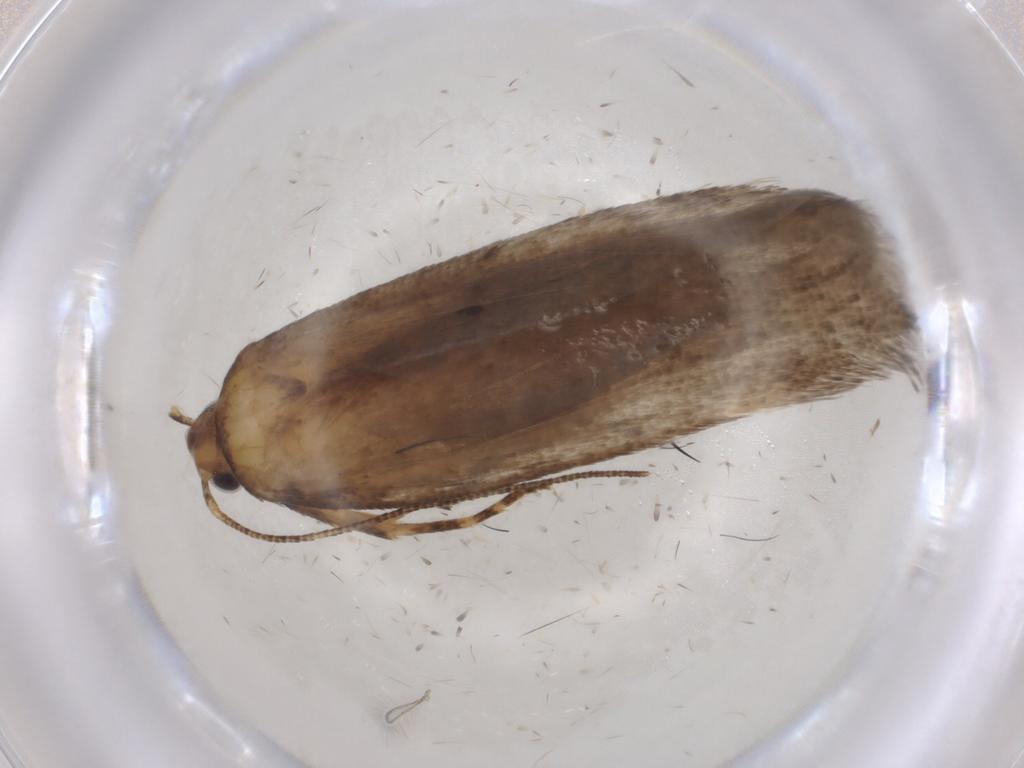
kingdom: Animalia
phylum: Arthropoda
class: Insecta
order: Lepidoptera
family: Gelechiidae
